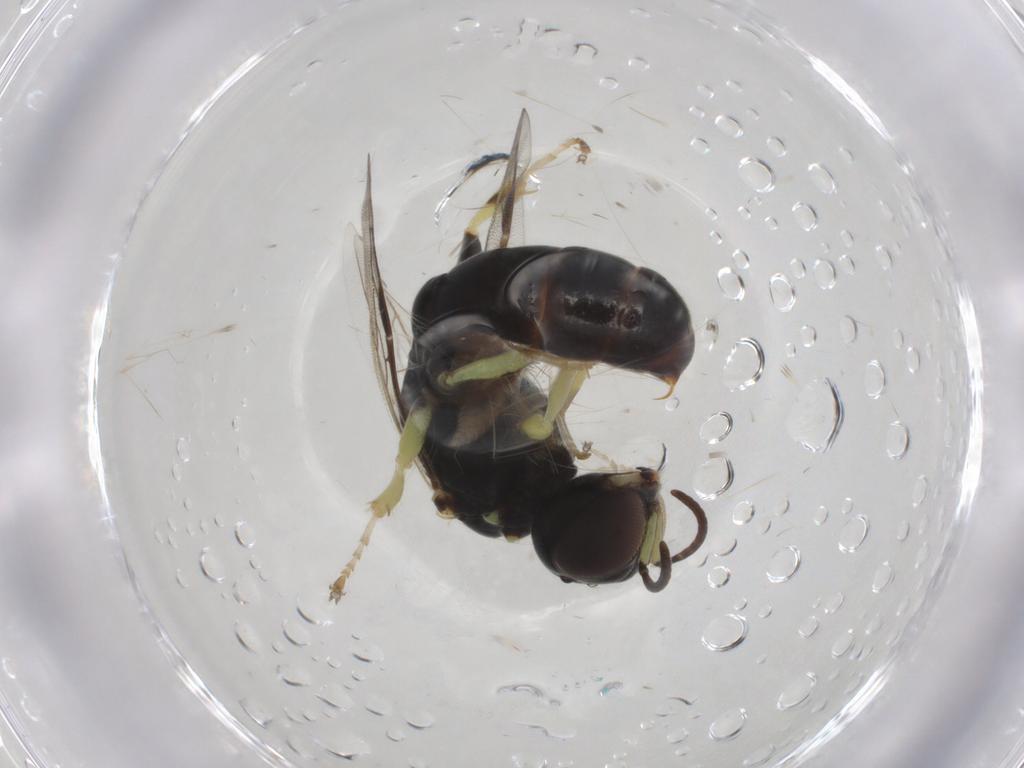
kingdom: Animalia
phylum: Arthropoda
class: Insecta
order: Hymenoptera
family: Crabronidae
